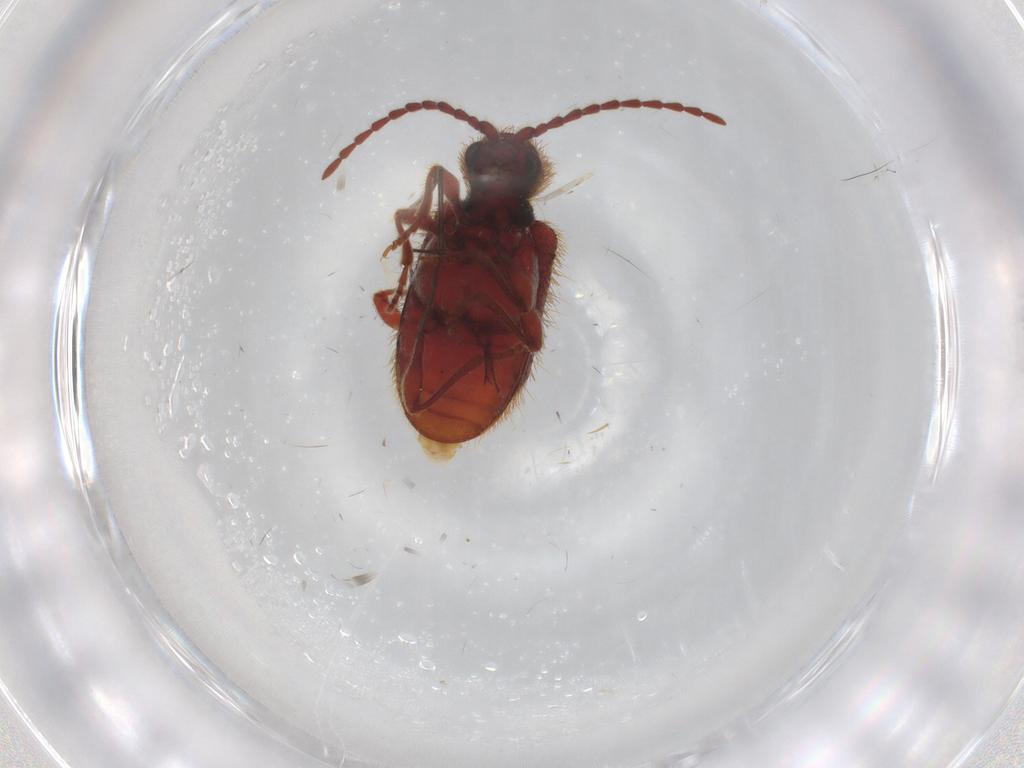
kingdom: Animalia
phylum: Arthropoda
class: Insecta
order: Coleoptera
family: Ptinidae
